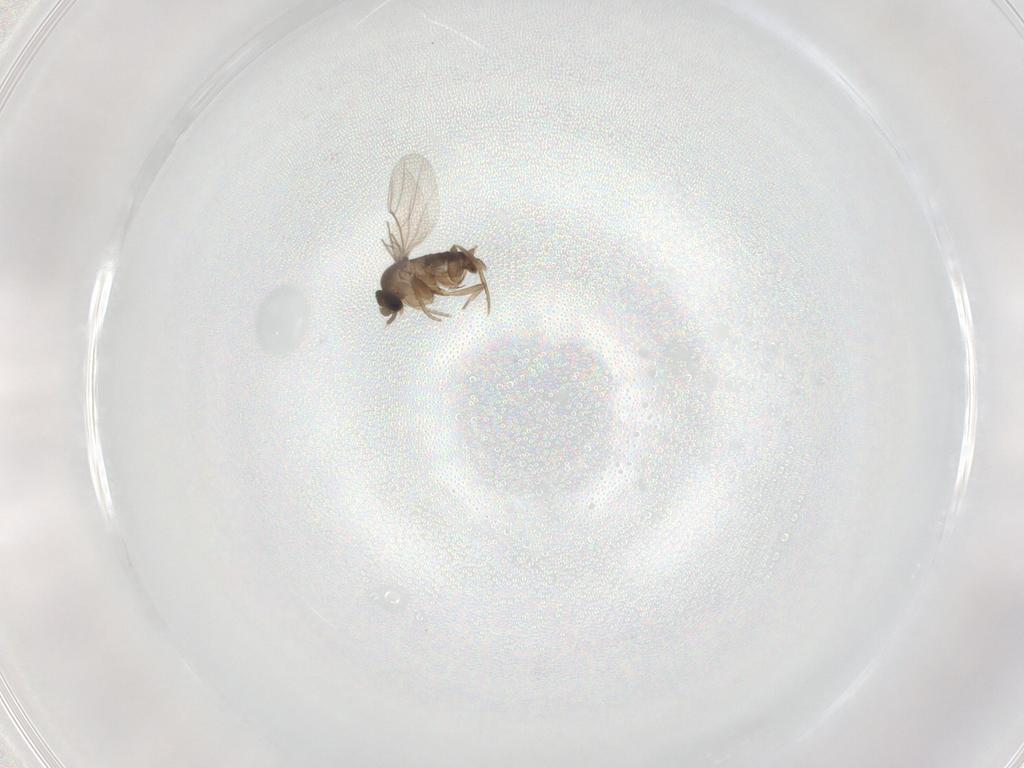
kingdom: Animalia
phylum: Arthropoda
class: Insecta
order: Diptera
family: Phoridae
